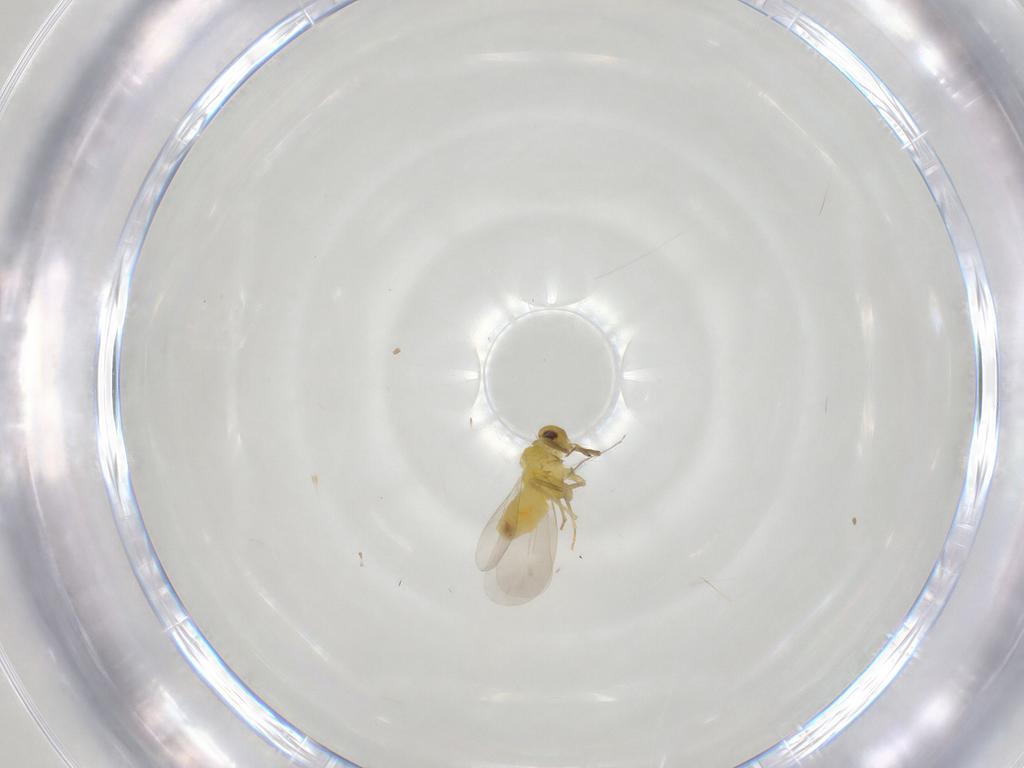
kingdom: Animalia
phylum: Arthropoda
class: Insecta
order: Hemiptera
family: Aleyrodidae
